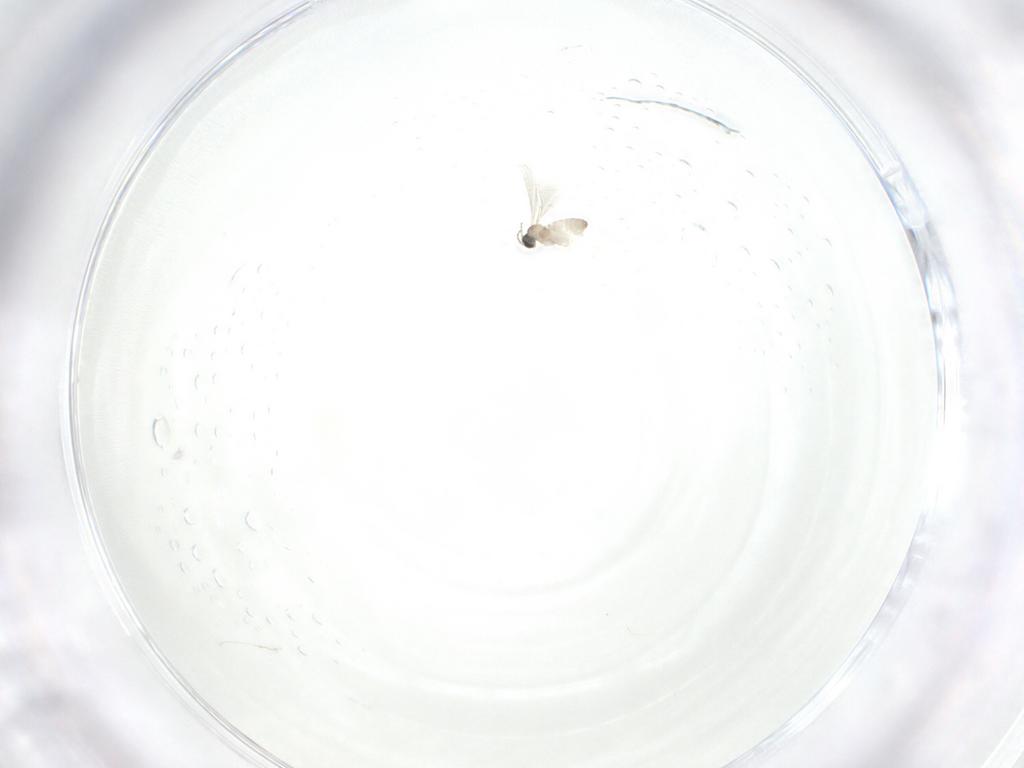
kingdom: Animalia
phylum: Arthropoda
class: Insecta
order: Diptera
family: Cecidomyiidae
